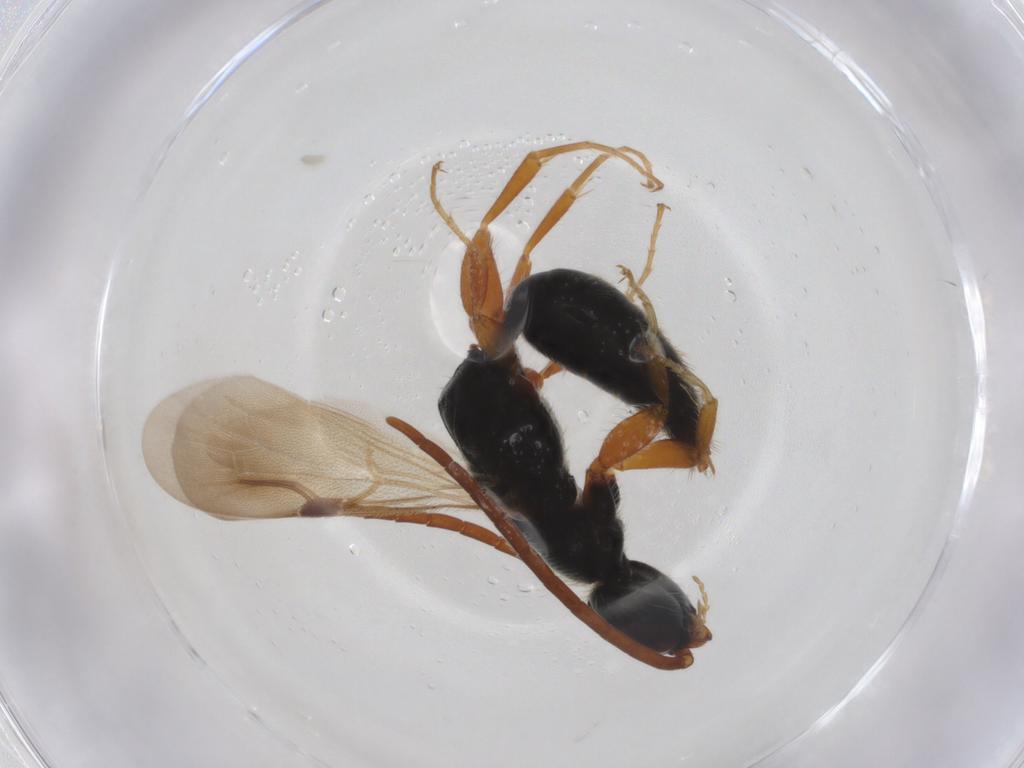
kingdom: Animalia
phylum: Arthropoda
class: Insecta
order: Hymenoptera
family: Bethylidae
